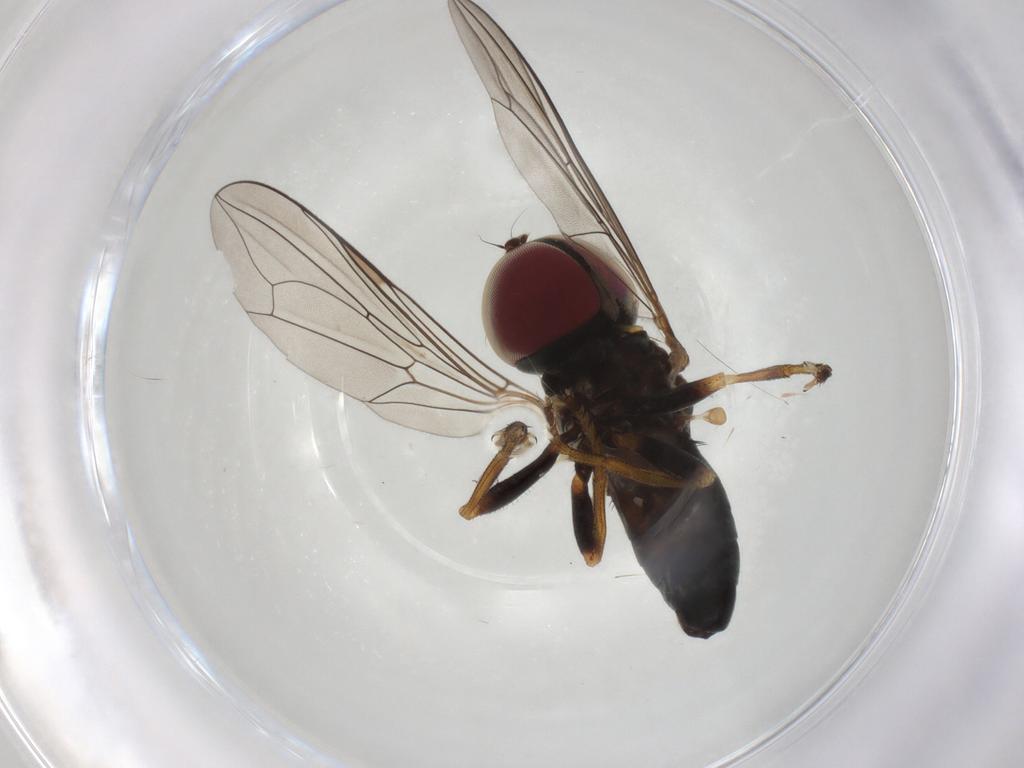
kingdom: Animalia
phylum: Arthropoda
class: Insecta
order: Diptera
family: Pipunculidae
